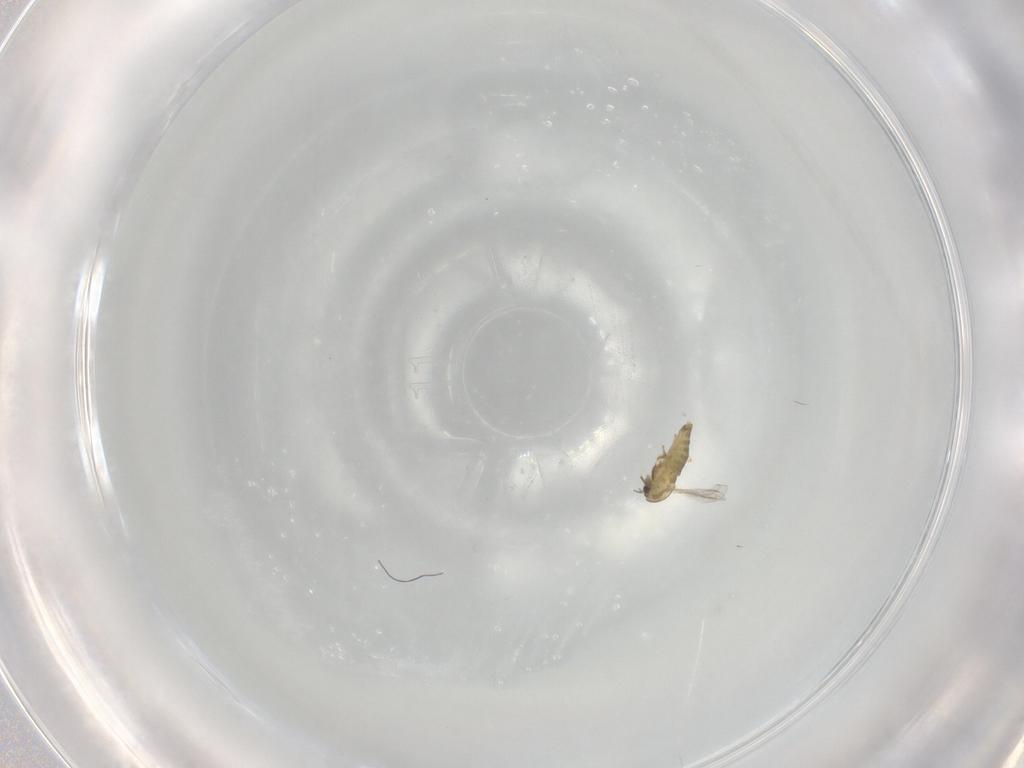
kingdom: Animalia
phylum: Arthropoda
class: Insecta
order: Diptera
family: Chironomidae
